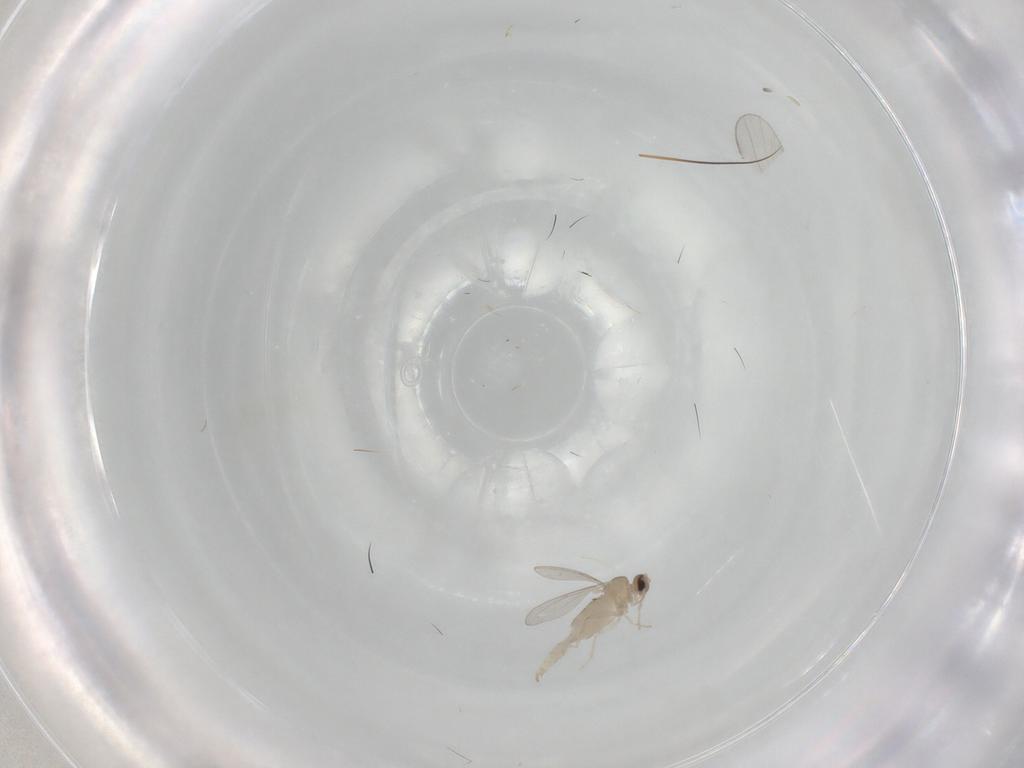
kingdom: Animalia
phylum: Arthropoda
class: Insecta
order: Diptera
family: Cecidomyiidae
